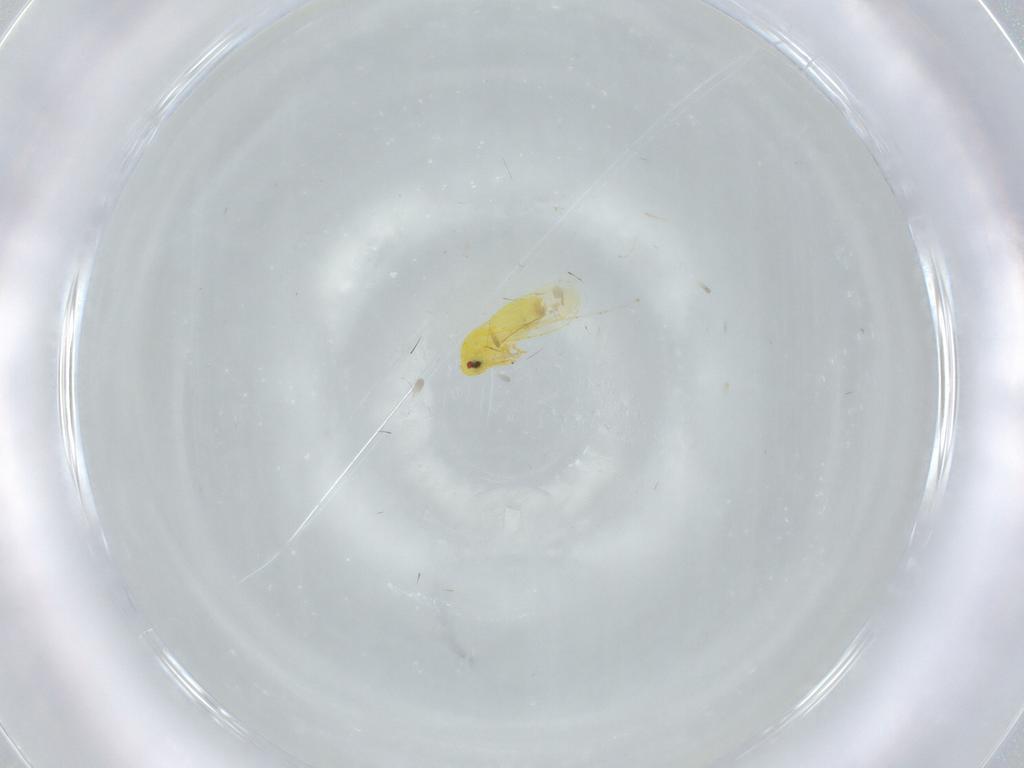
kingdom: Animalia
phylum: Arthropoda
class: Insecta
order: Hemiptera
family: Aleyrodidae
